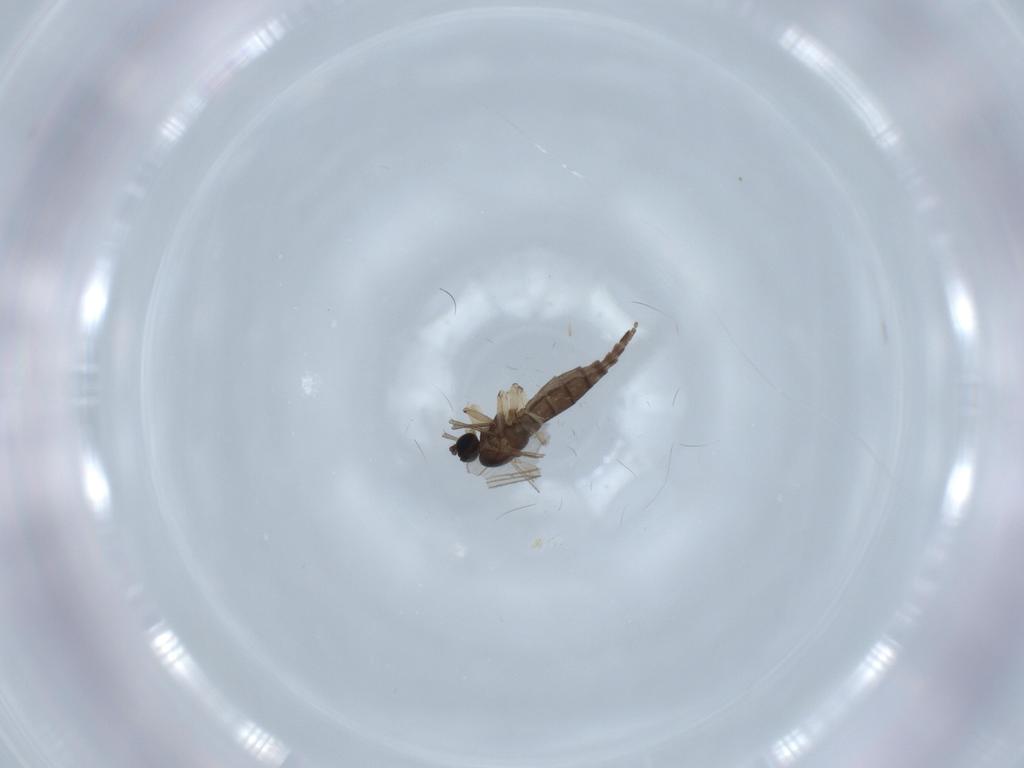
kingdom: Animalia
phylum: Arthropoda
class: Insecta
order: Diptera
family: Sciaridae
